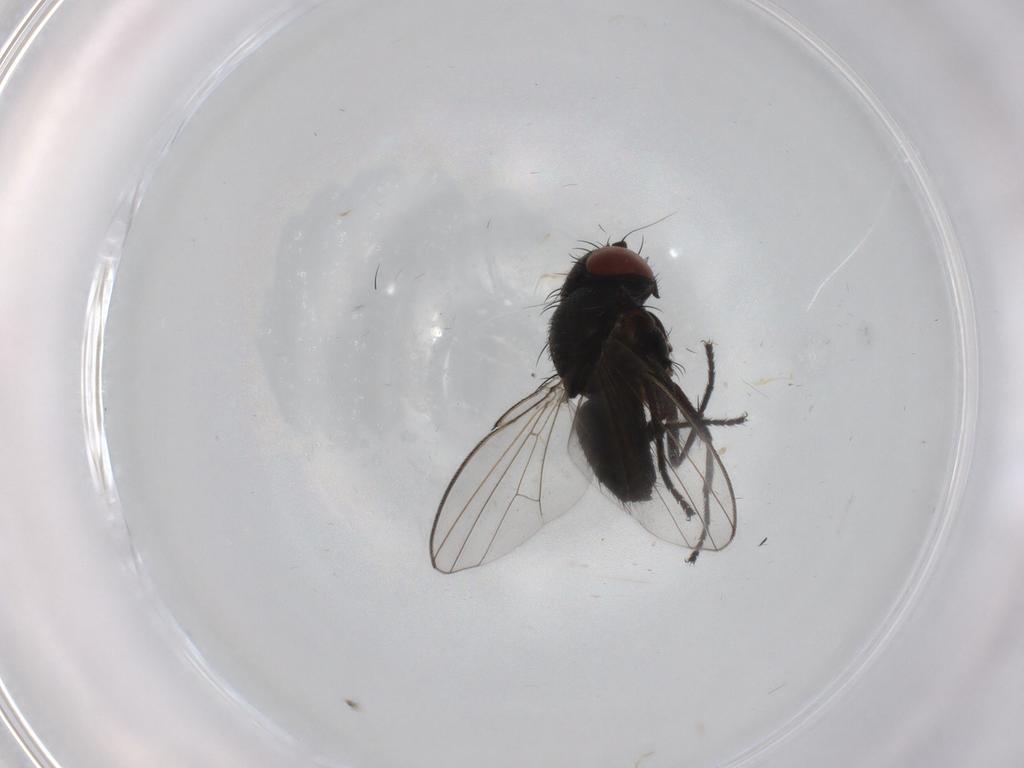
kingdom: Animalia
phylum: Arthropoda
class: Insecta
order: Diptera
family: Milichiidae
